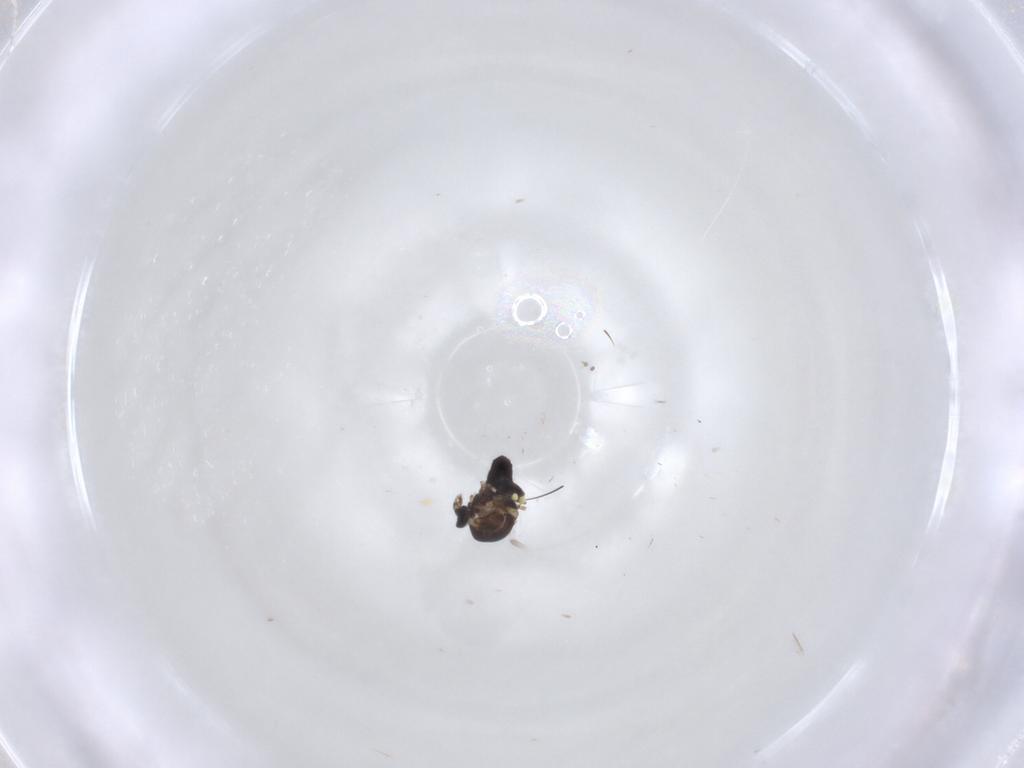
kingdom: Animalia
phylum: Arthropoda
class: Insecta
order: Diptera
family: Ceratopogonidae
